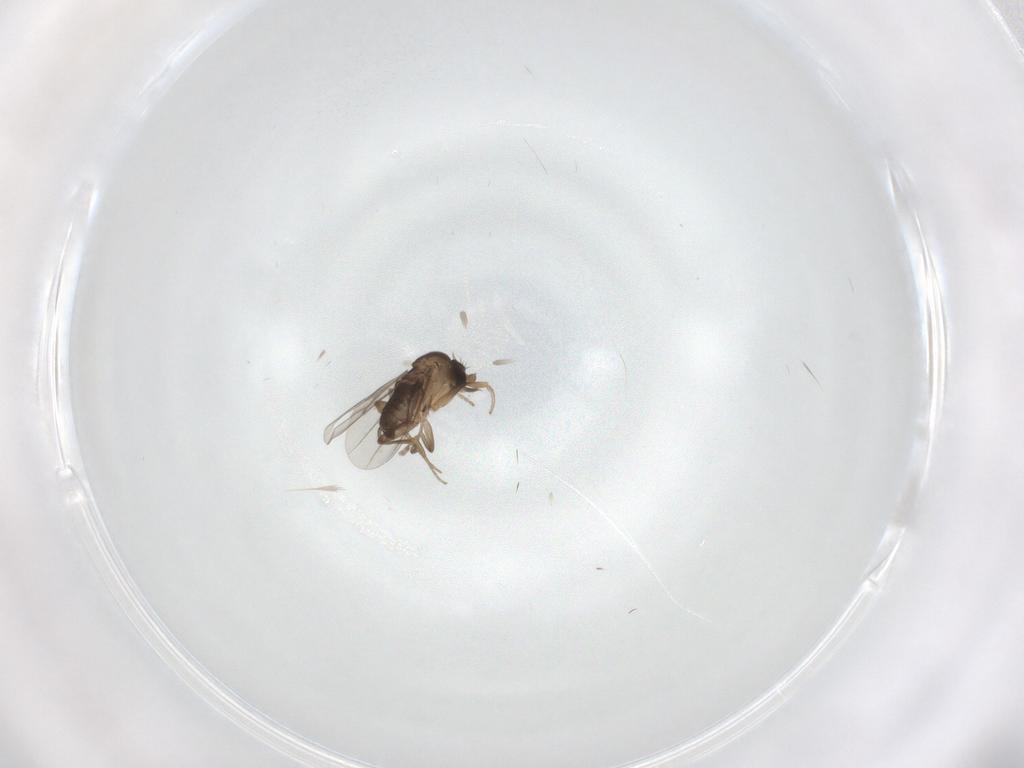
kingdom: Animalia
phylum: Arthropoda
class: Insecta
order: Diptera
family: Phoridae
